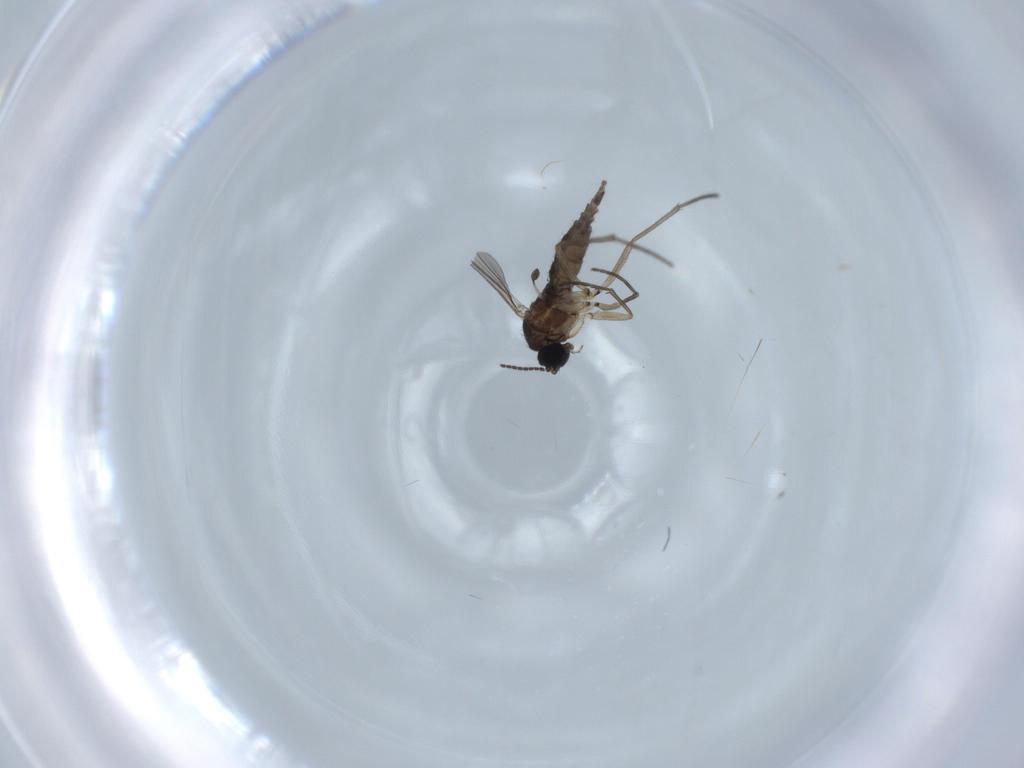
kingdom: Animalia
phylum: Arthropoda
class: Insecta
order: Diptera
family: Sciaridae
